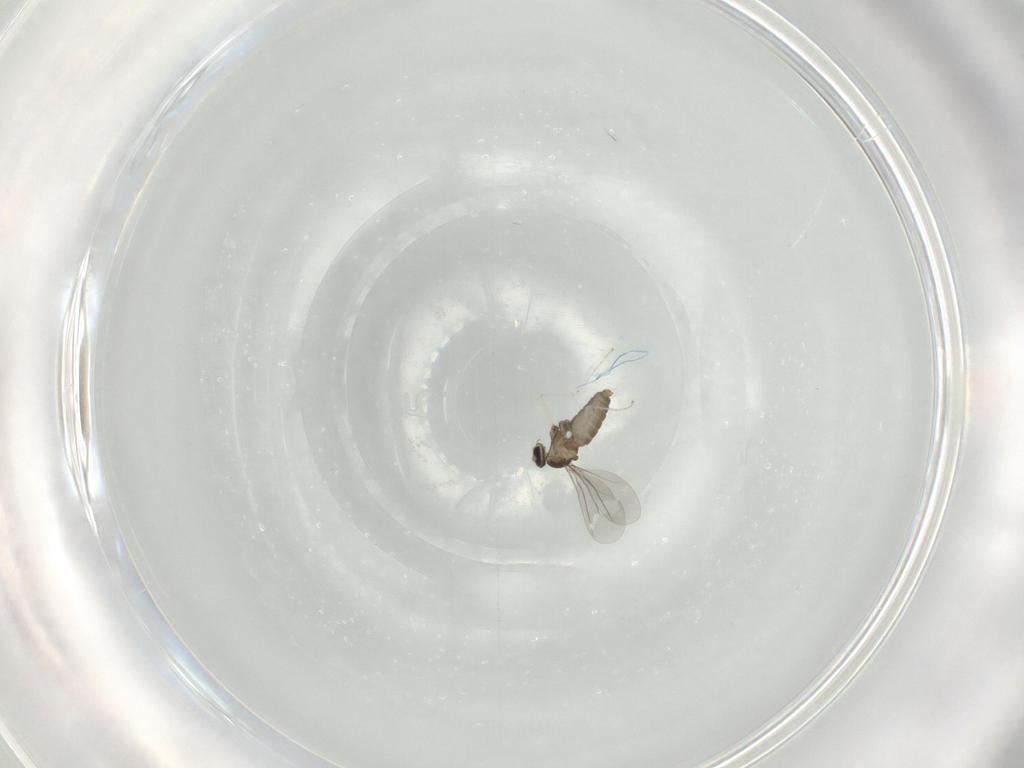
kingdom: Animalia
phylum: Arthropoda
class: Insecta
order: Diptera
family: Cecidomyiidae
